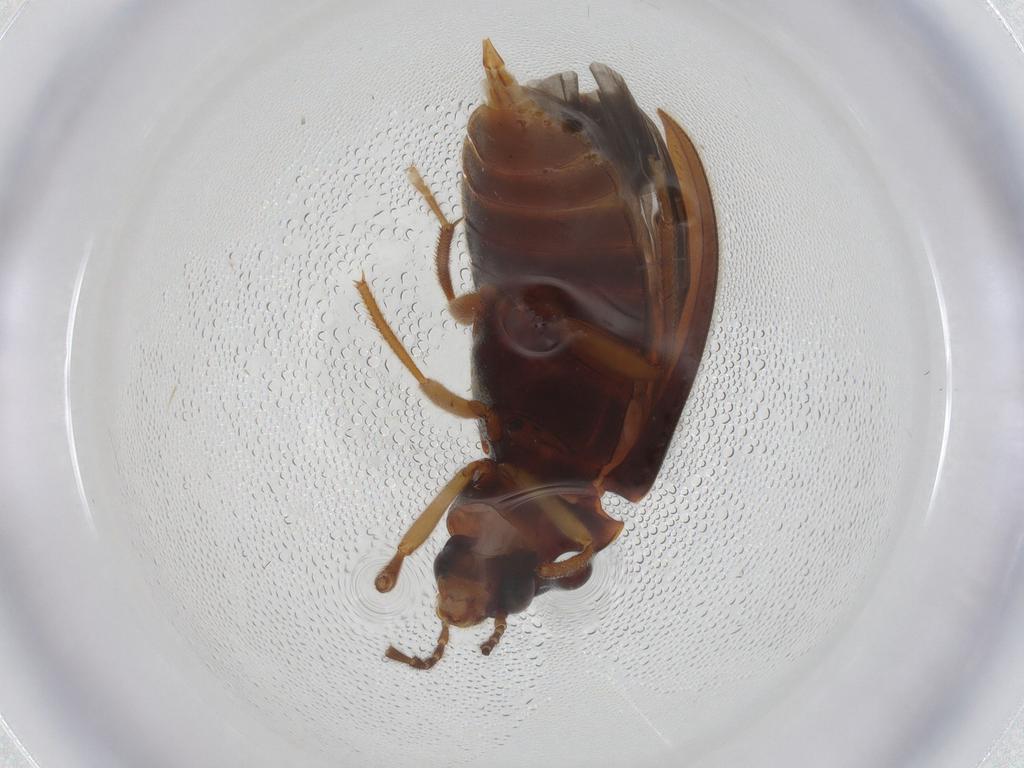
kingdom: Animalia
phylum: Arthropoda
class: Insecta
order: Coleoptera
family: Ptilodactylidae
